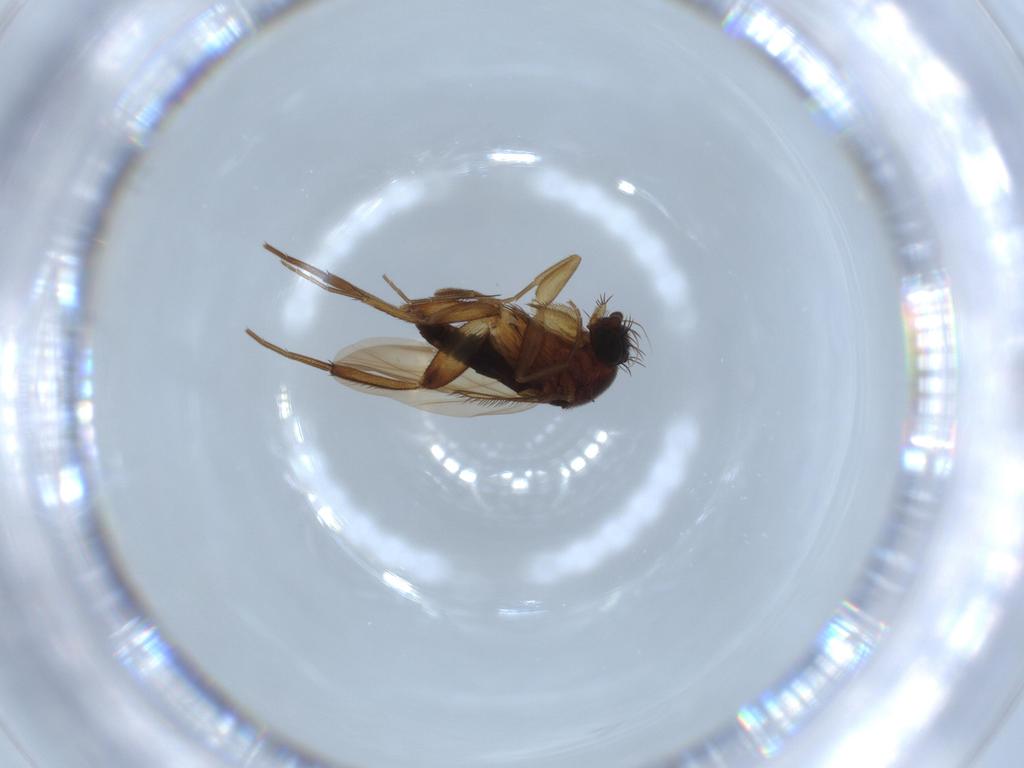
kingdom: Animalia
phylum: Arthropoda
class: Insecta
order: Diptera
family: Phoridae
